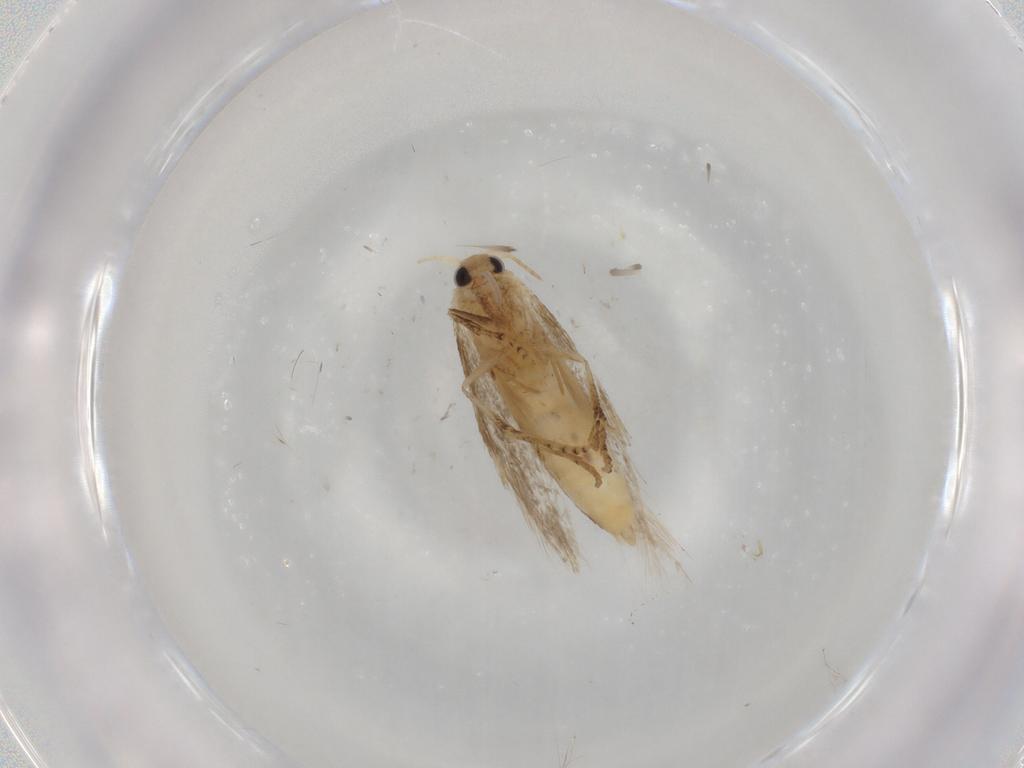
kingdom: Animalia
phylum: Arthropoda
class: Insecta
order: Lepidoptera
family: Bucculatricidae
